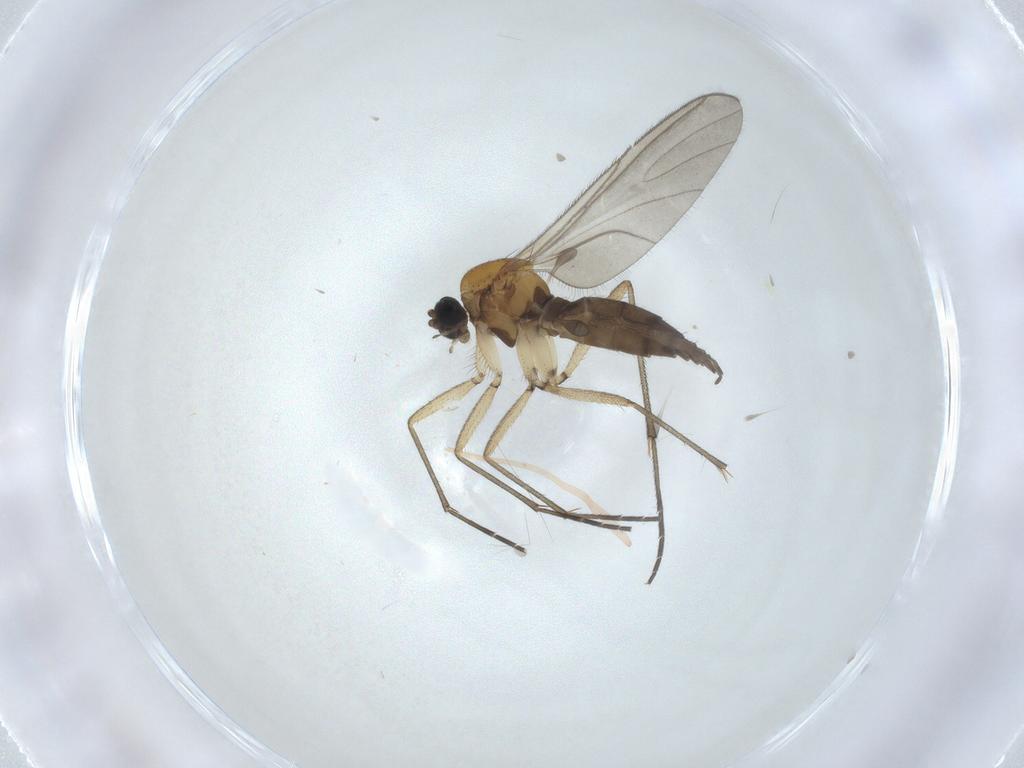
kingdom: Animalia
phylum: Arthropoda
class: Insecta
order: Diptera
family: Sciaridae
